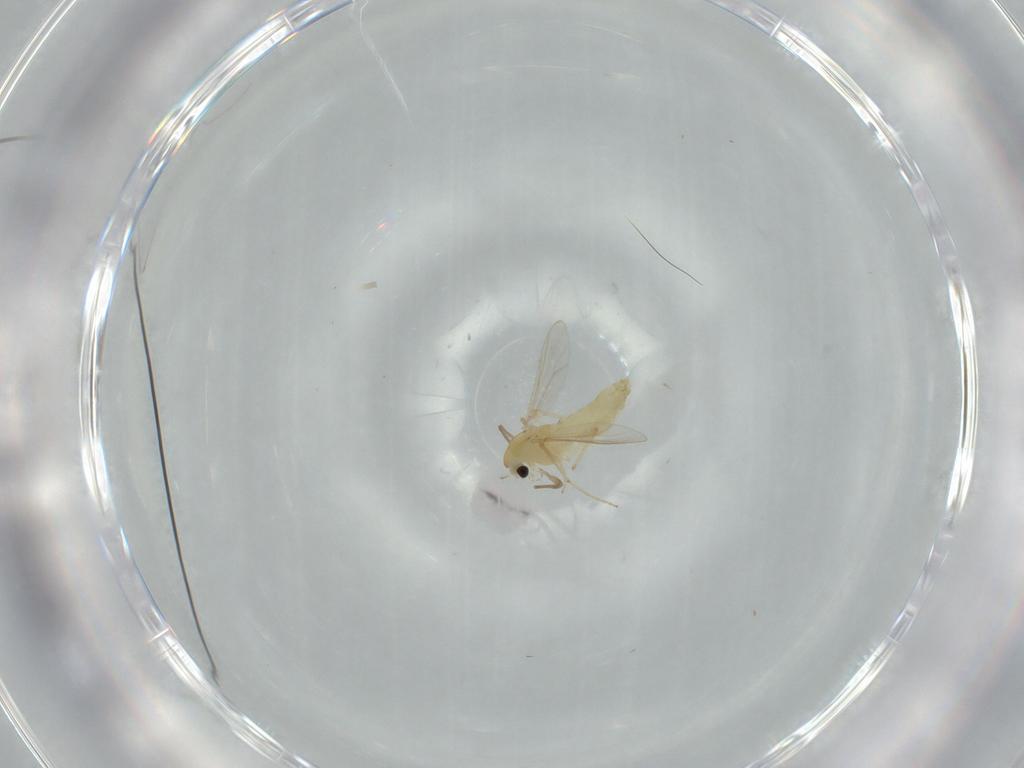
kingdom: Animalia
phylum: Arthropoda
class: Insecta
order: Diptera
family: Chironomidae
